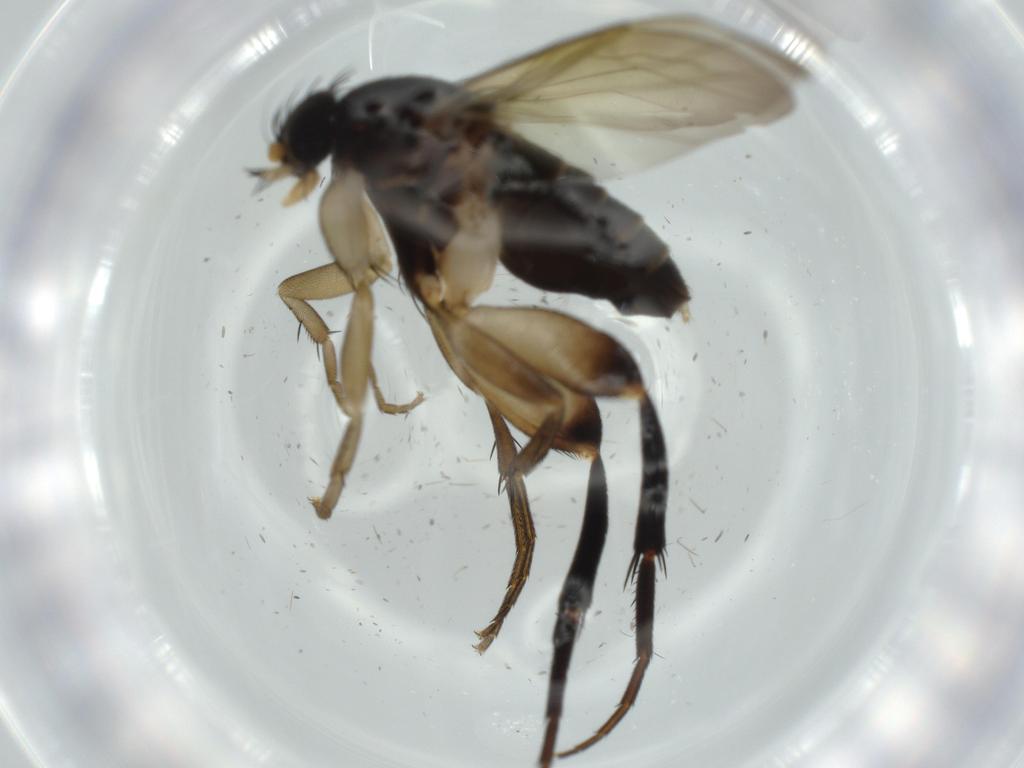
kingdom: Animalia
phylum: Arthropoda
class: Insecta
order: Diptera
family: Phoridae
